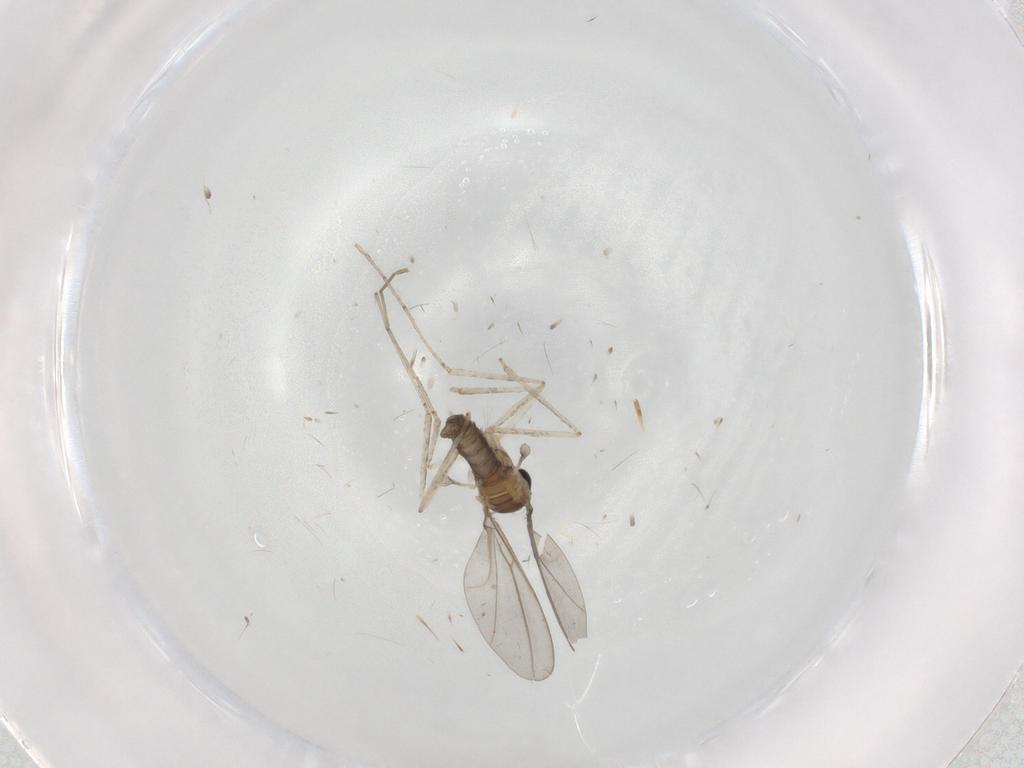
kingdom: Animalia
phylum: Arthropoda
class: Insecta
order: Diptera
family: Cecidomyiidae
